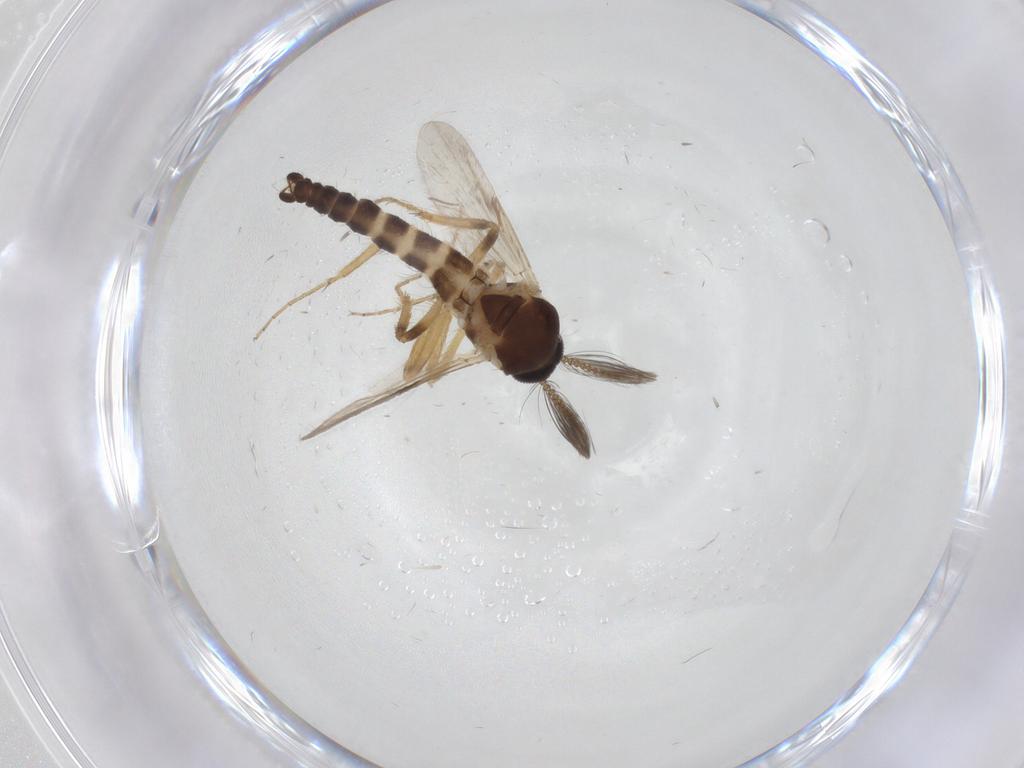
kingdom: Animalia
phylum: Arthropoda
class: Insecta
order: Diptera
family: Ceratopogonidae
